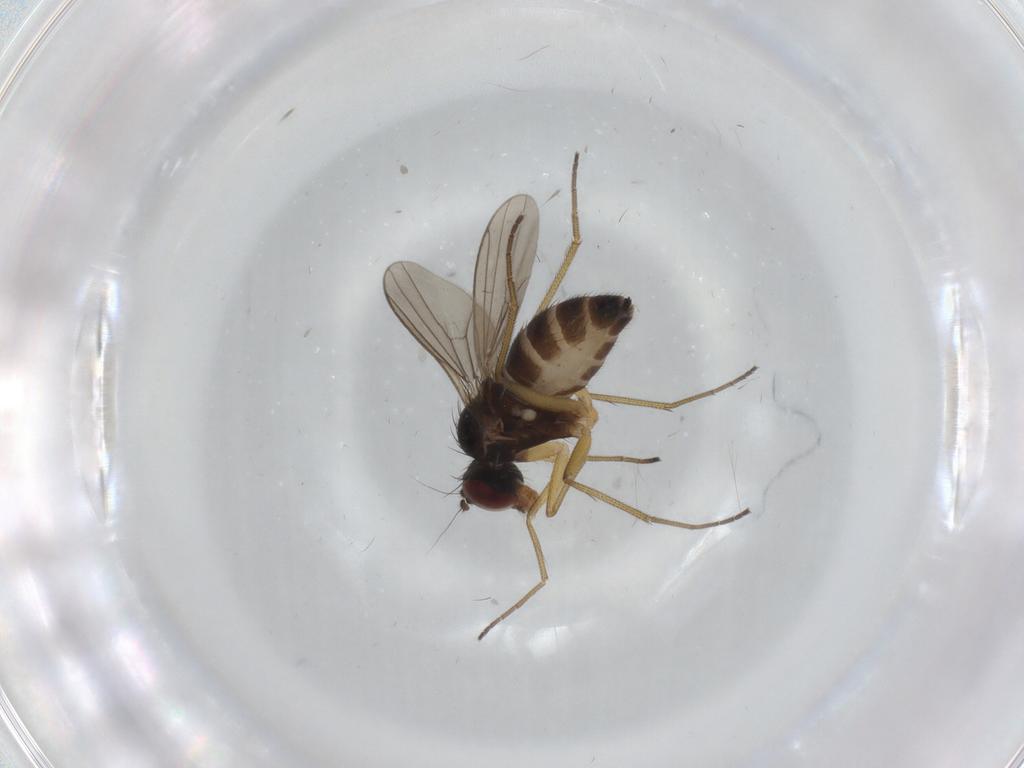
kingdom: Animalia
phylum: Arthropoda
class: Insecta
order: Diptera
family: Dolichopodidae
